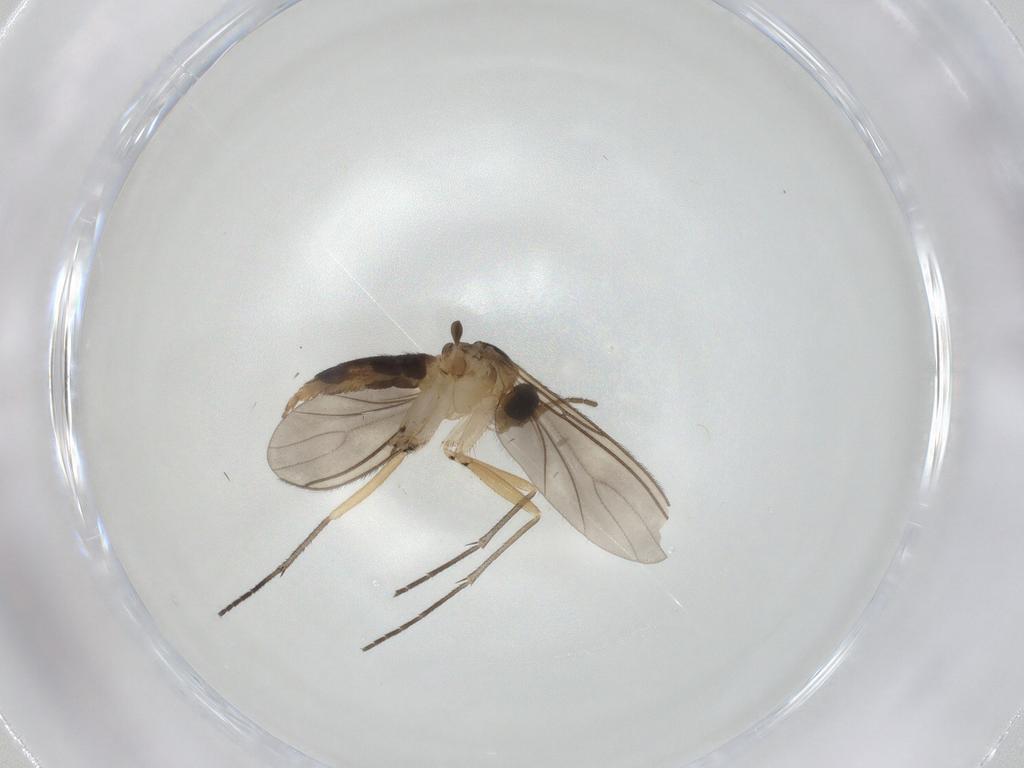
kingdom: Animalia
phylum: Arthropoda
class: Insecta
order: Diptera
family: Sciaridae
